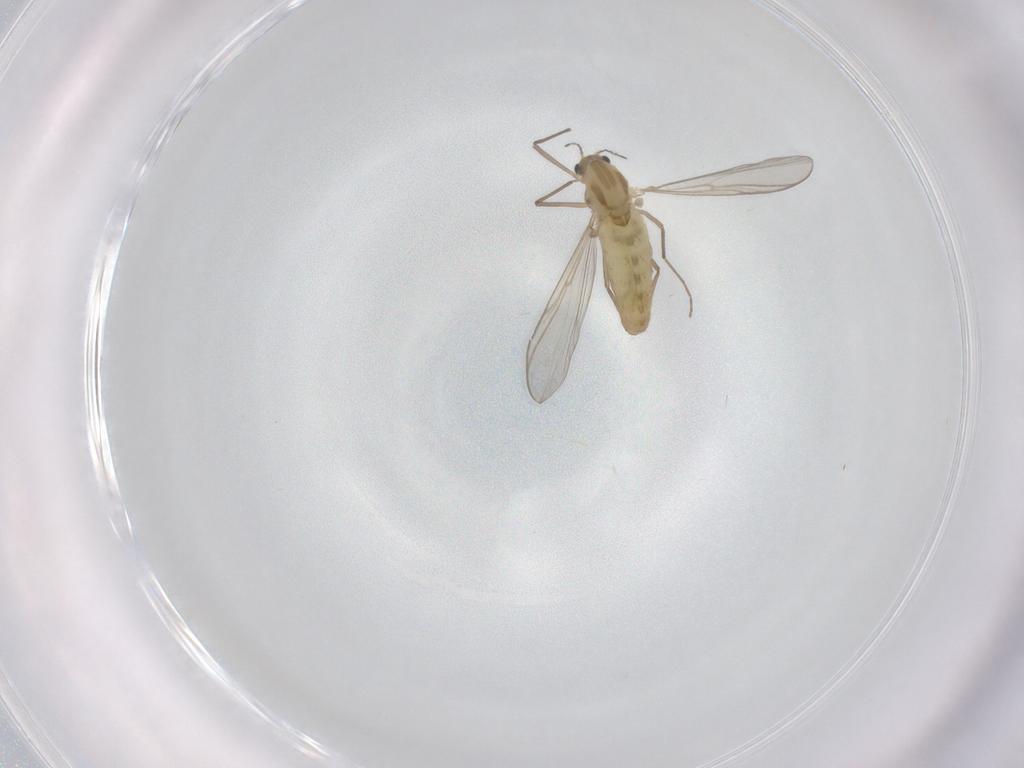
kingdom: Animalia
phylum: Arthropoda
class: Insecta
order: Diptera
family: Chironomidae
